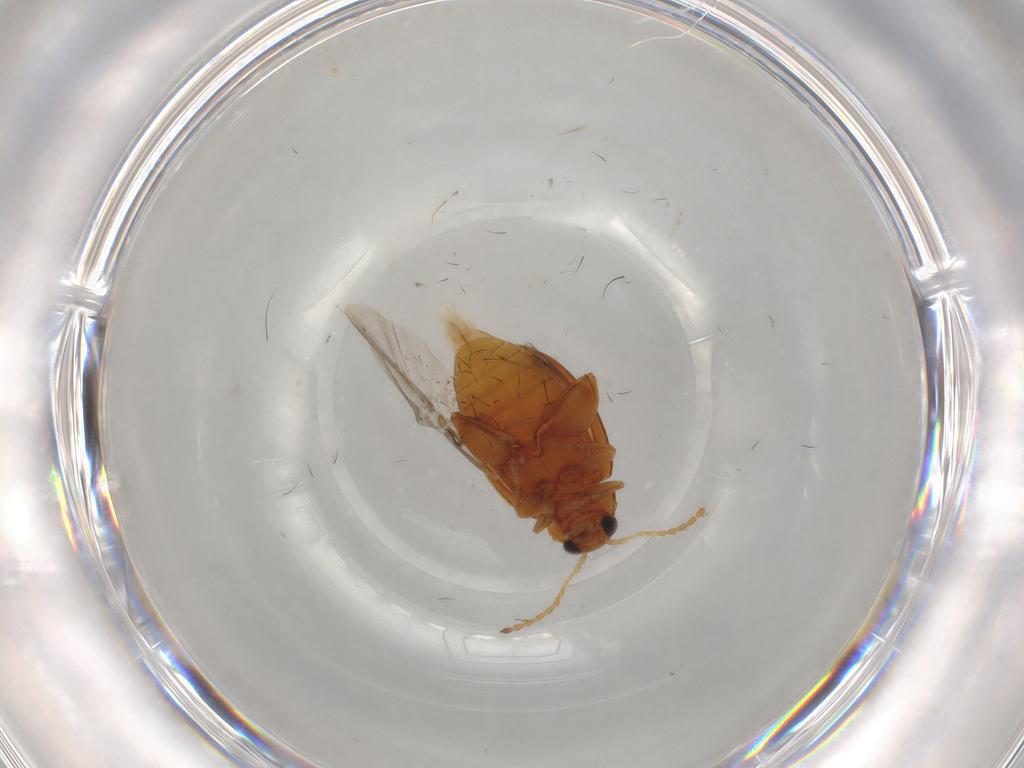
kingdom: Animalia
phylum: Arthropoda
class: Insecta
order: Coleoptera
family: Chrysomelidae
